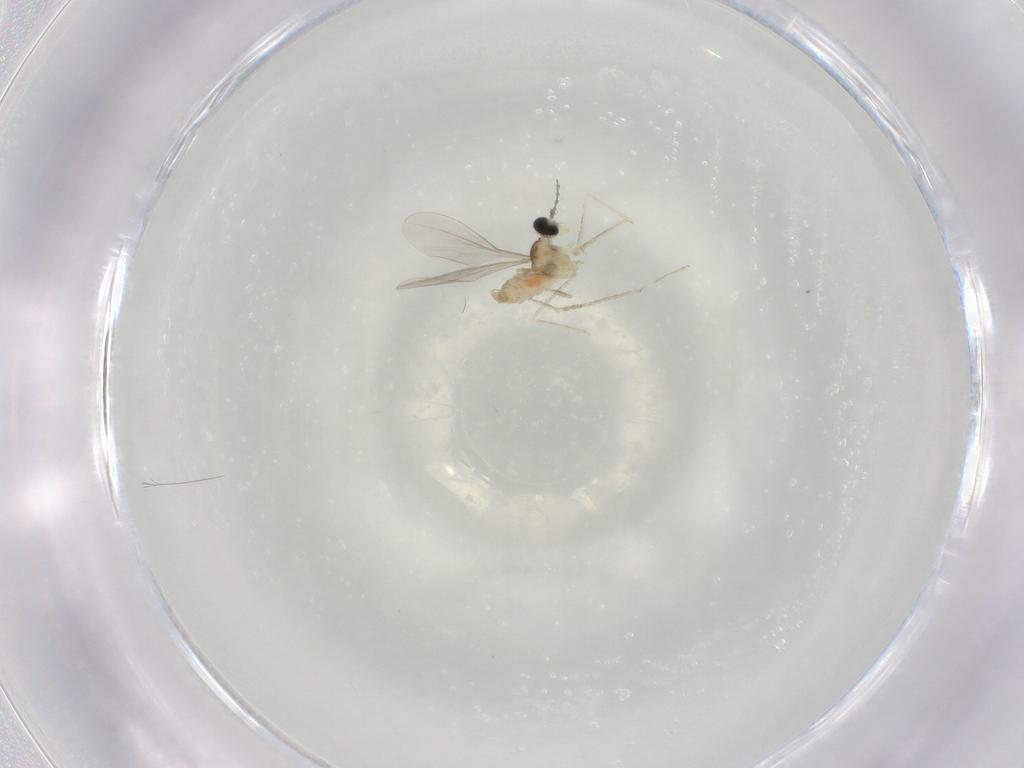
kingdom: Animalia
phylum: Arthropoda
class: Insecta
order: Diptera
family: Cecidomyiidae
